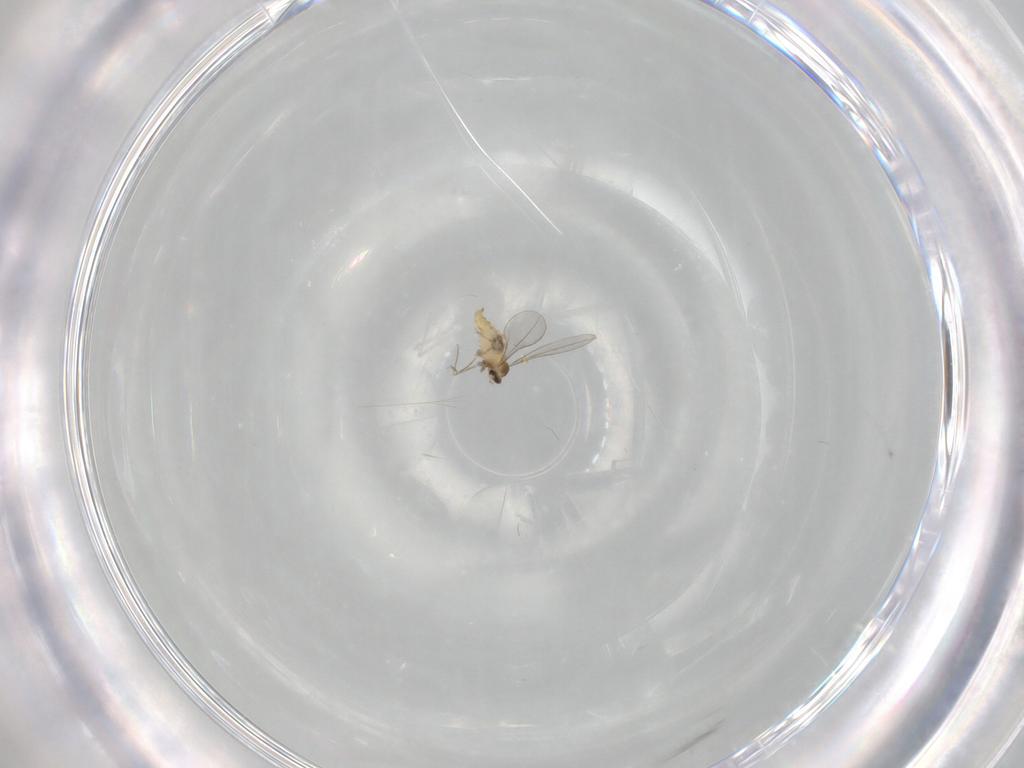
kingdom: Animalia
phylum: Arthropoda
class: Insecta
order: Diptera
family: Cecidomyiidae
